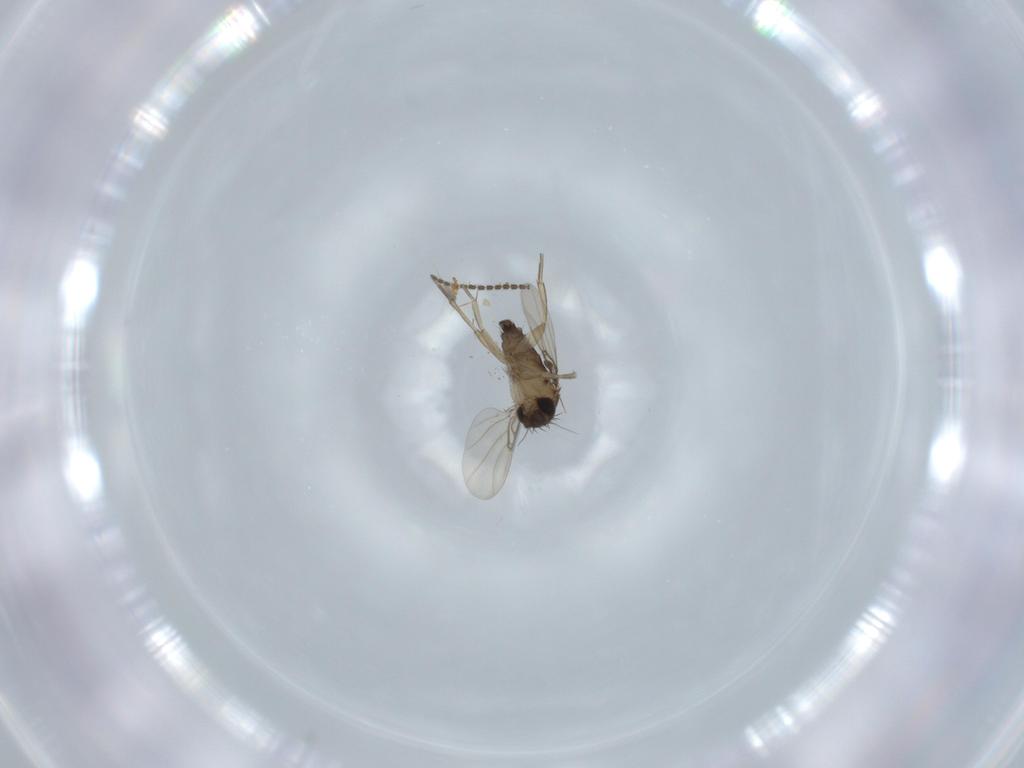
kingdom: Animalia
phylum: Arthropoda
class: Insecta
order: Diptera
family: Phoridae
